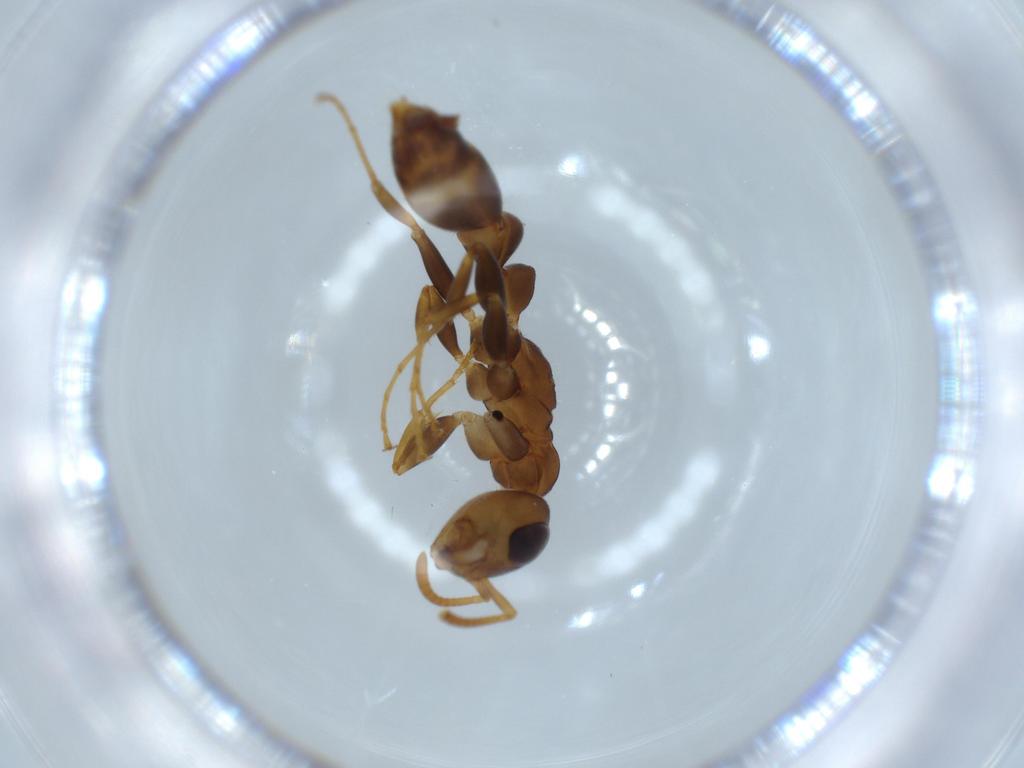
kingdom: Animalia
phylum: Arthropoda
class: Insecta
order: Hymenoptera
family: Formicidae
